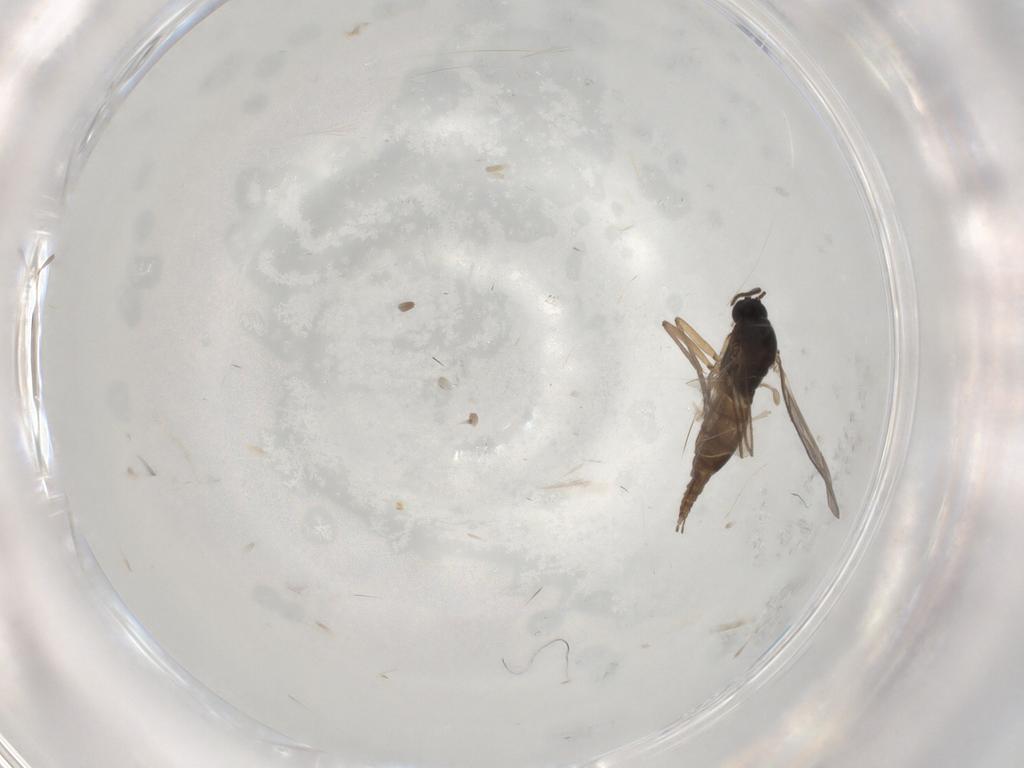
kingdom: Animalia
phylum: Arthropoda
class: Insecta
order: Diptera
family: Sciaridae
